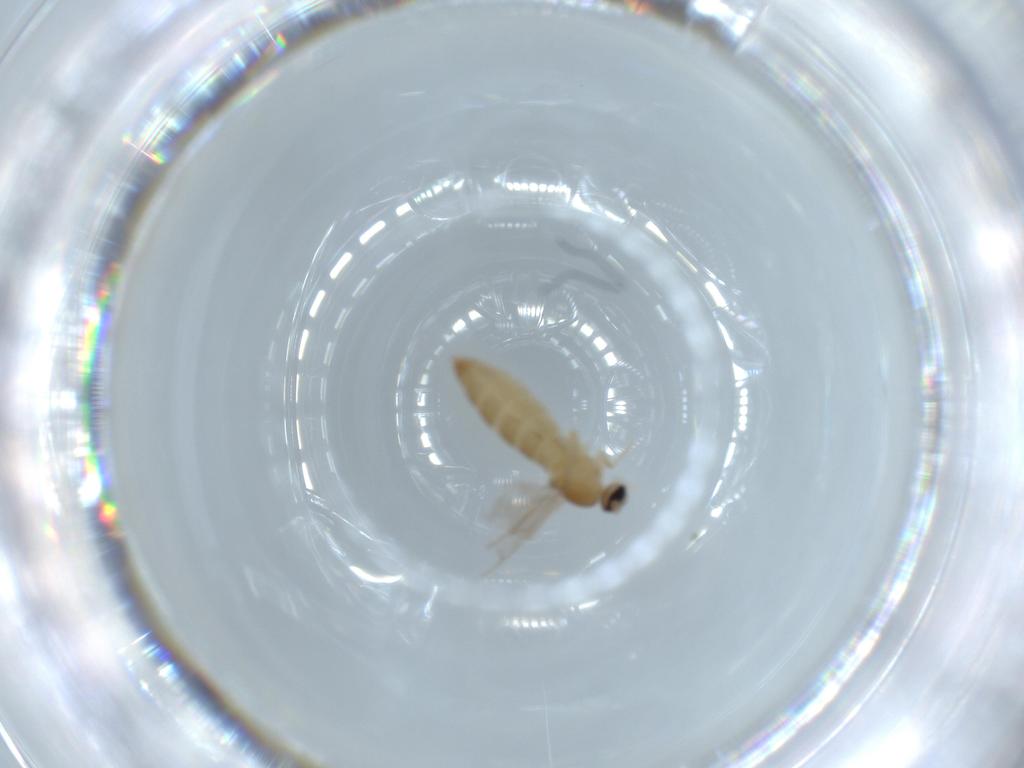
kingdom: Animalia
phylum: Arthropoda
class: Insecta
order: Diptera
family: Cecidomyiidae
